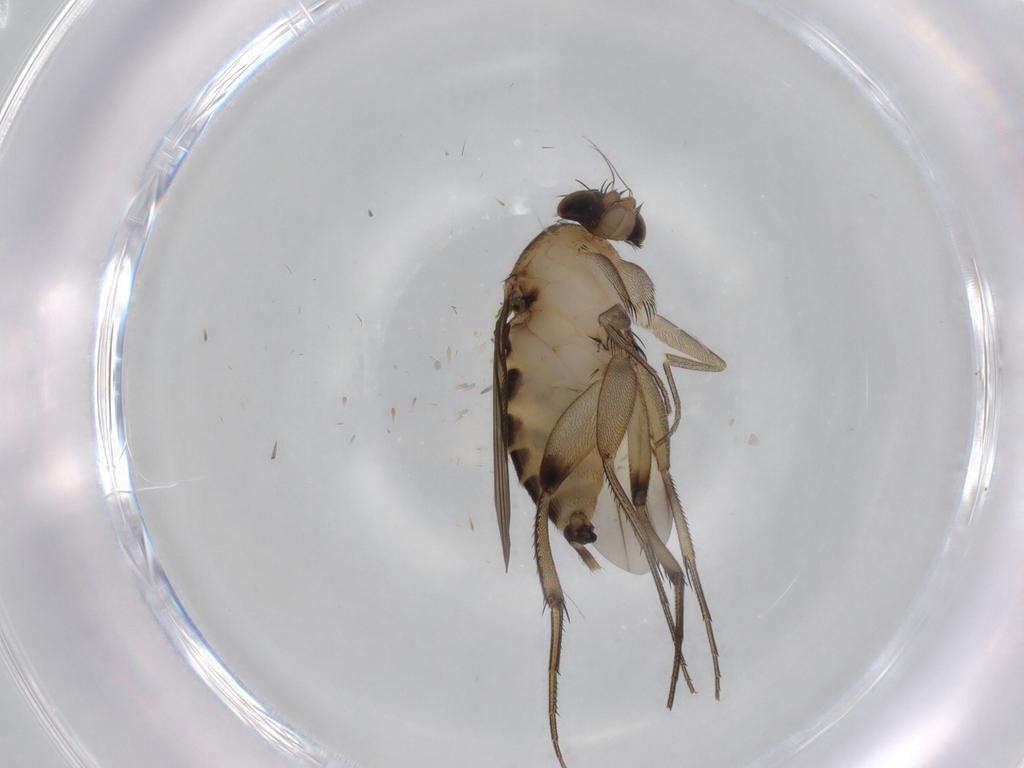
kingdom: Animalia
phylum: Arthropoda
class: Insecta
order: Diptera
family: Phoridae
